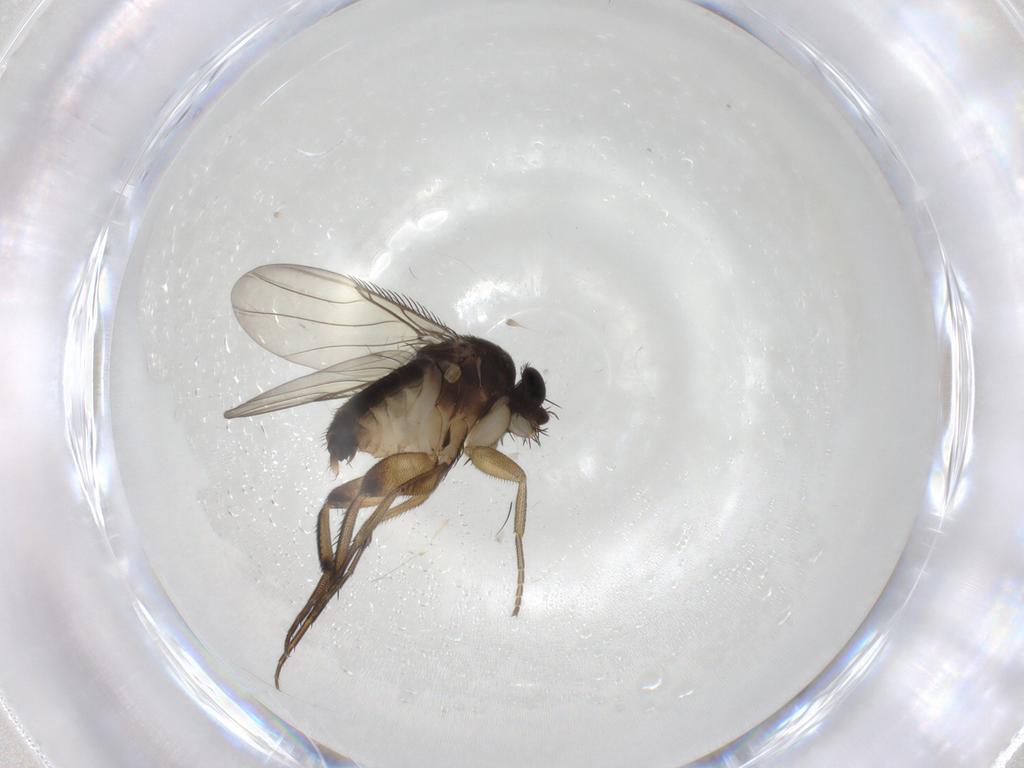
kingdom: Animalia
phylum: Arthropoda
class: Insecta
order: Diptera
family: Phoridae
